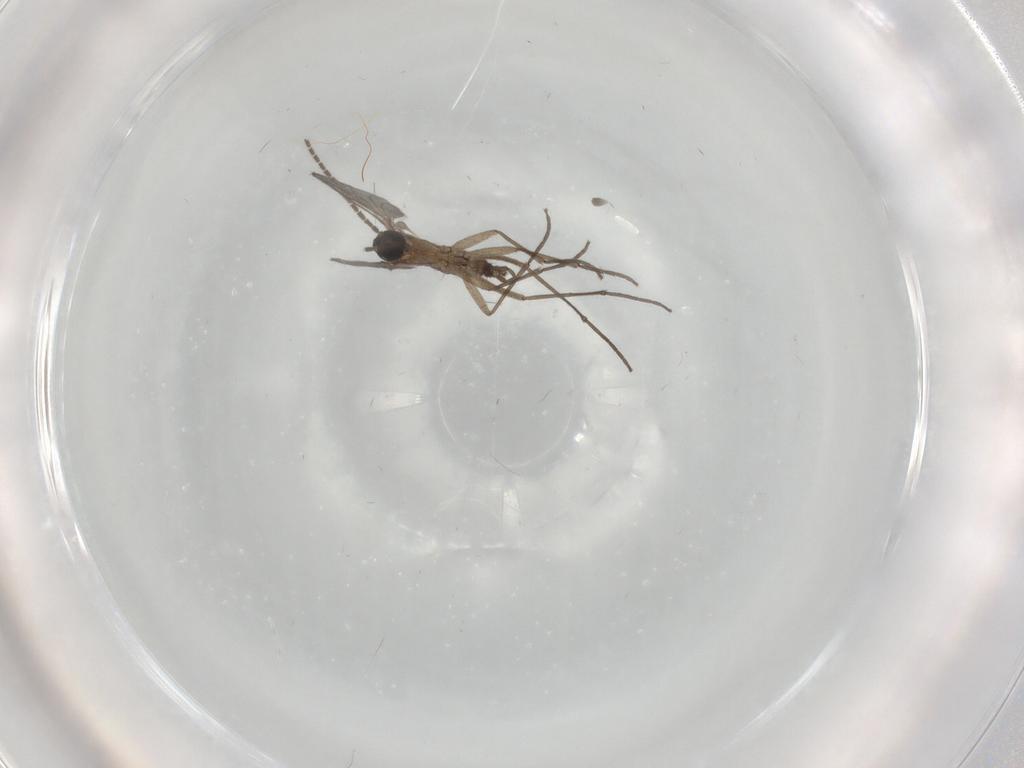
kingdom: Animalia
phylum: Arthropoda
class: Insecta
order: Diptera
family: Sciaridae
